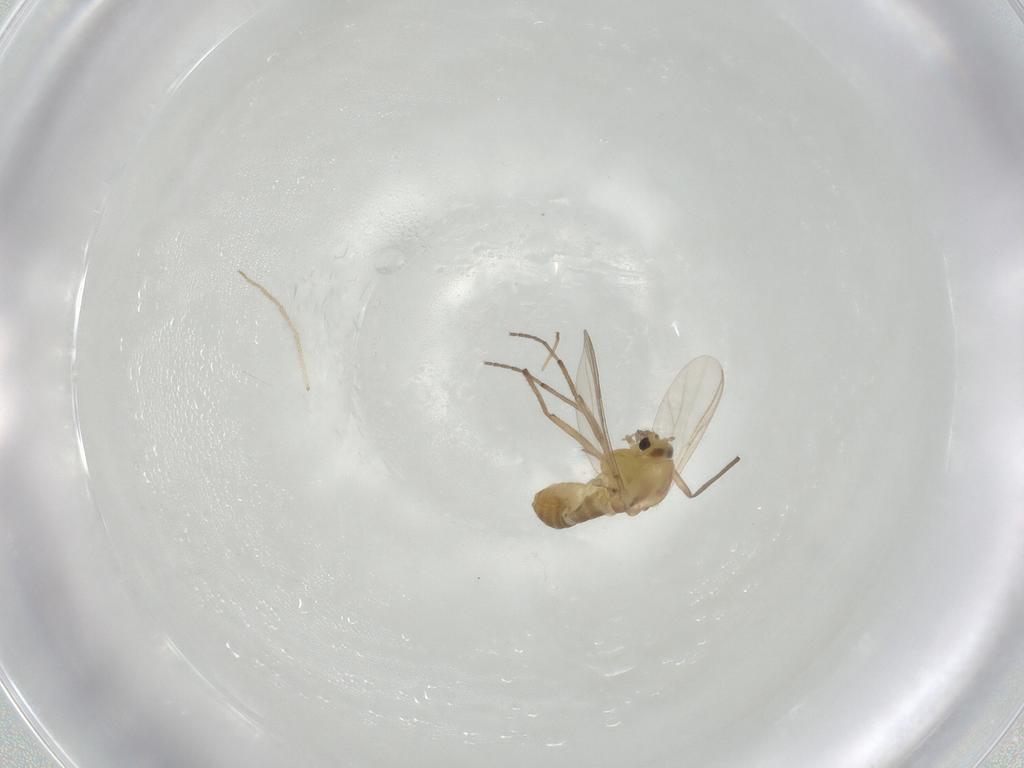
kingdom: Animalia
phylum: Arthropoda
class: Insecta
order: Diptera
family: Chironomidae
